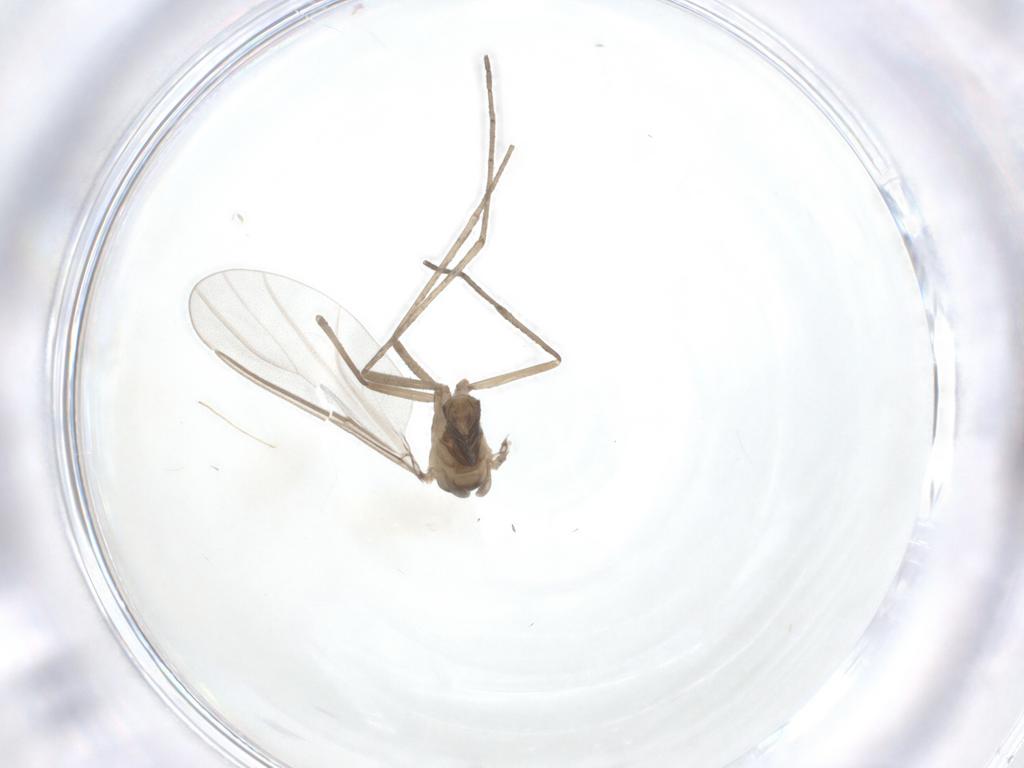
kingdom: Animalia
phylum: Arthropoda
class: Insecta
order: Diptera
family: Cecidomyiidae
